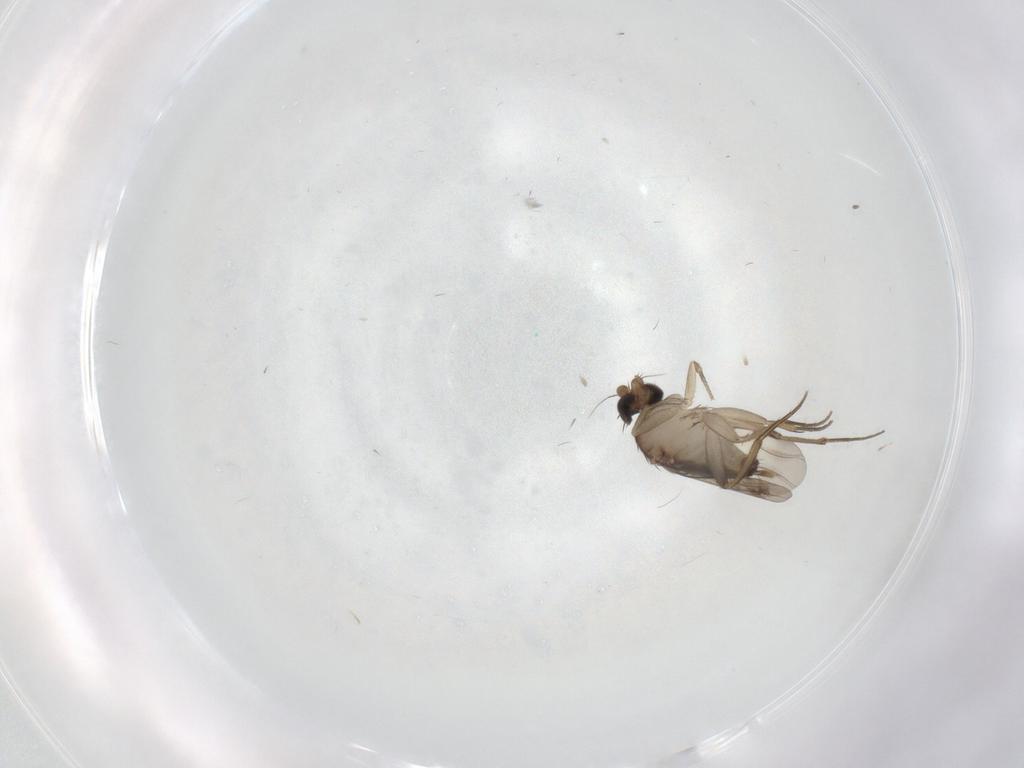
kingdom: Animalia
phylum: Arthropoda
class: Insecta
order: Diptera
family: Phoridae
